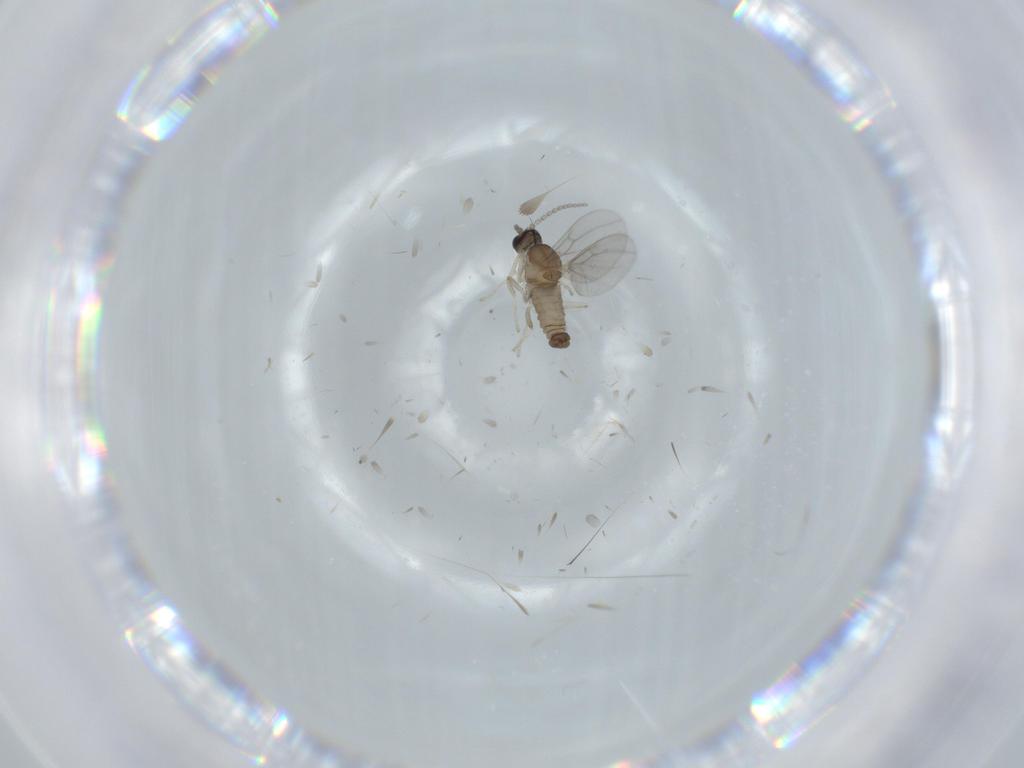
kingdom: Animalia
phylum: Arthropoda
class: Insecta
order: Diptera
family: Cecidomyiidae
